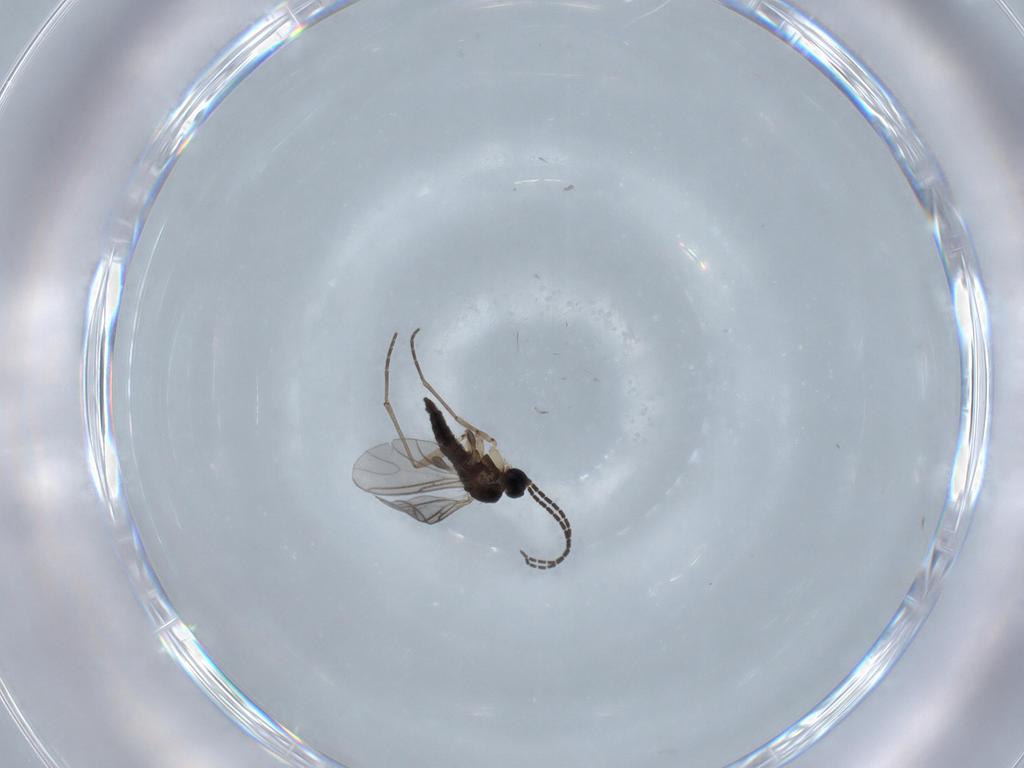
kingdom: Animalia
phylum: Arthropoda
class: Insecta
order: Diptera
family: Sciaridae
